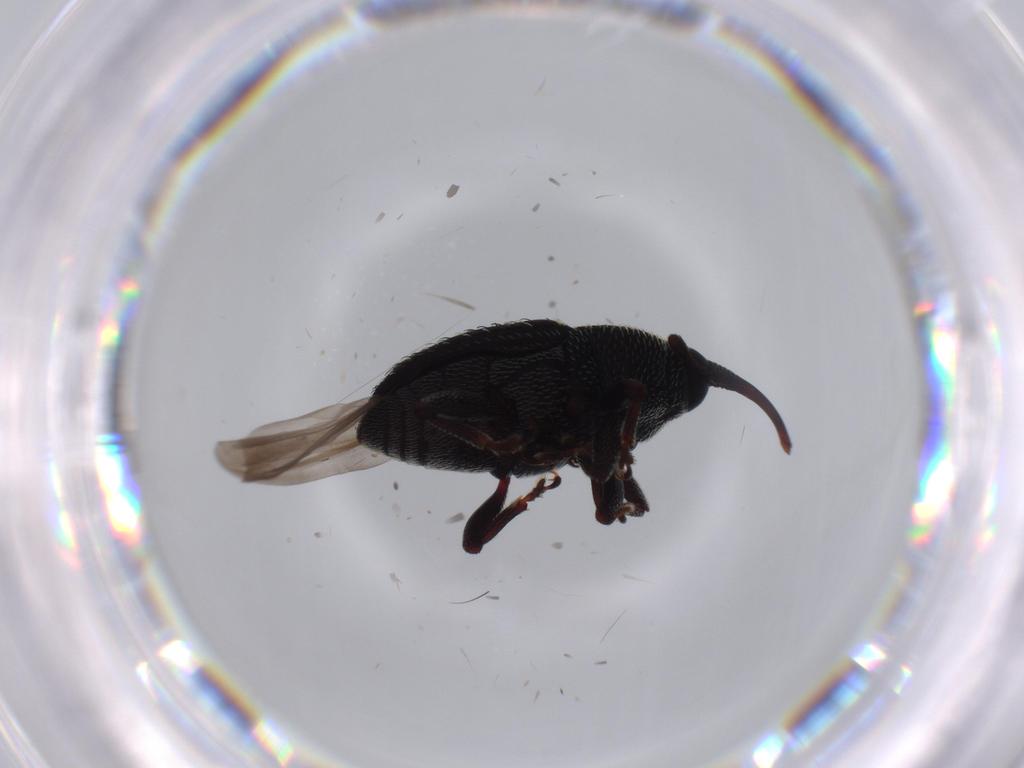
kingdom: Animalia
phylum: Arthropoda
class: Insecta
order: Coleoptera
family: Curculionidae
